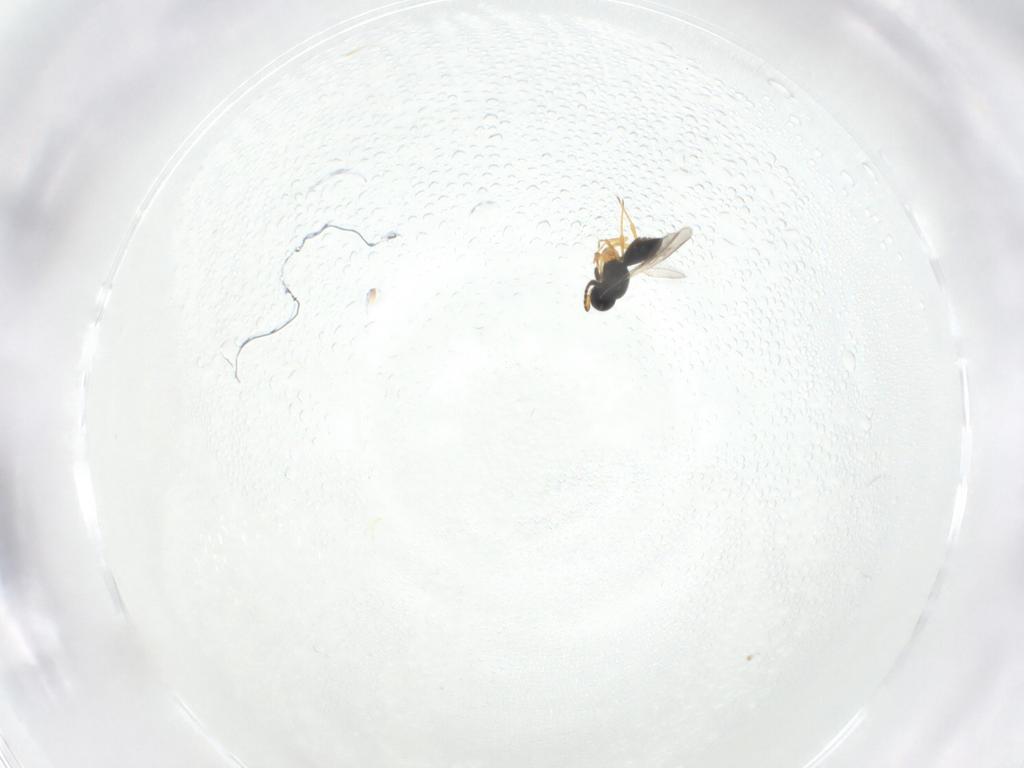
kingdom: Animalia
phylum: Arthropoda
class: Insecta
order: Hymenoptera
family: Scelionidae
